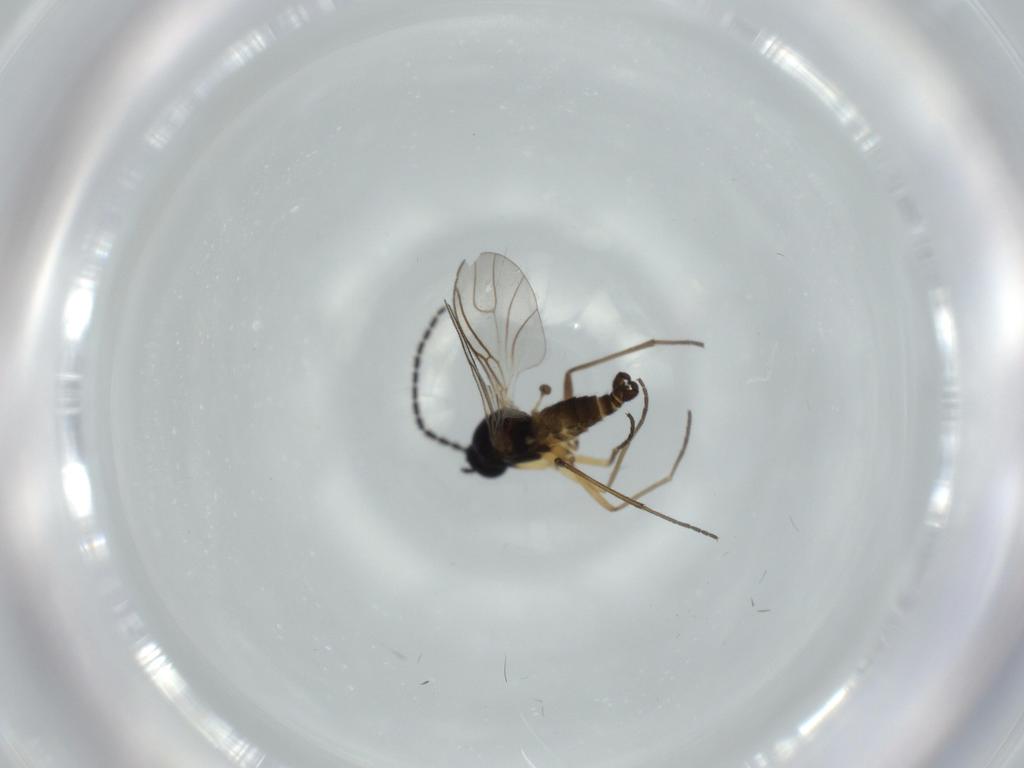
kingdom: Animalia
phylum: Arthropoda
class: Insecta
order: Diptera
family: Sciaridae
